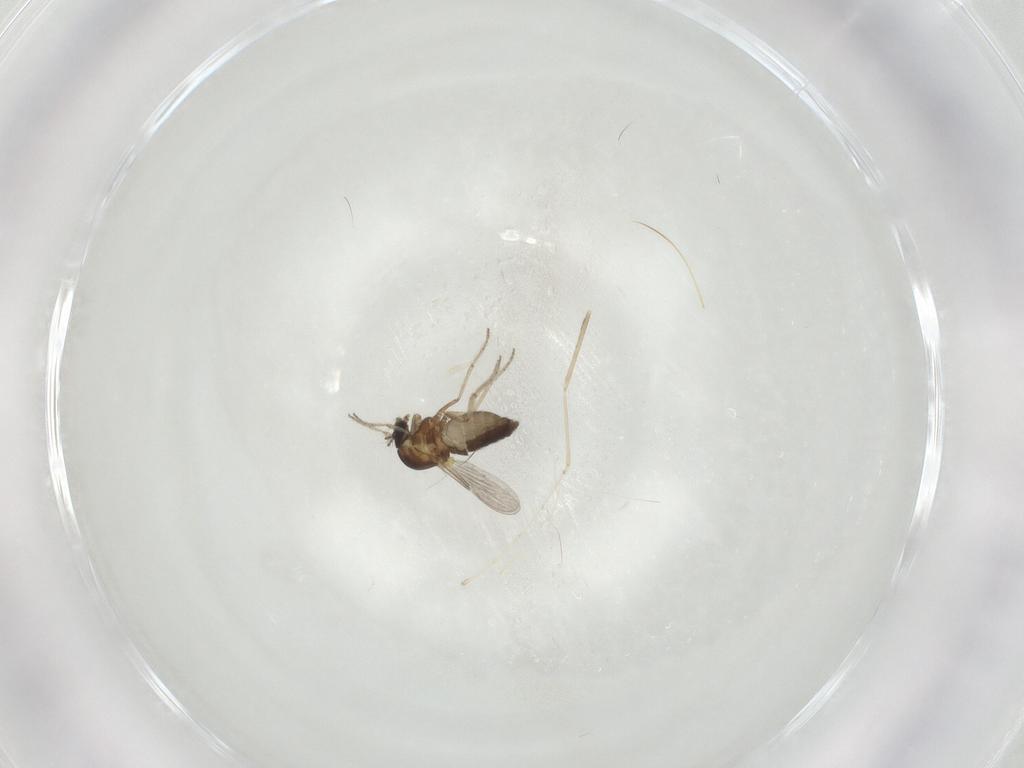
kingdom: Animalia
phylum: Arthropoda
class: Insecta
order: Diptera
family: Ceratopogonidae
